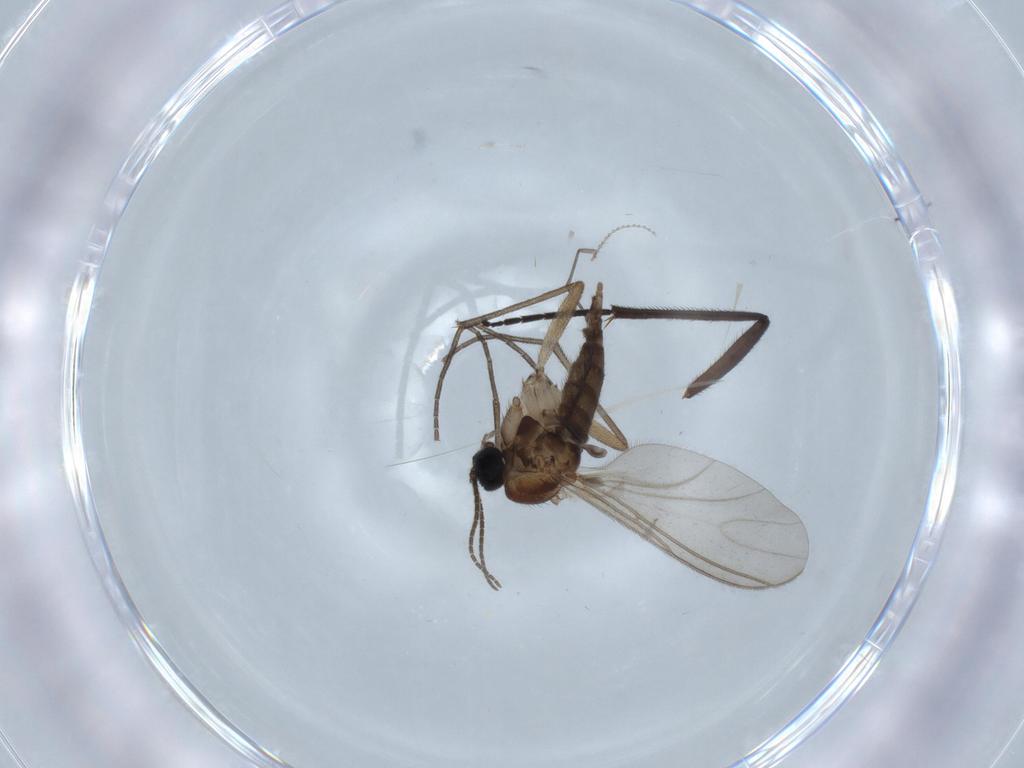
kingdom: Animalia
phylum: Arthropoda
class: Insecta
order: Diptera
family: Sciaridae
